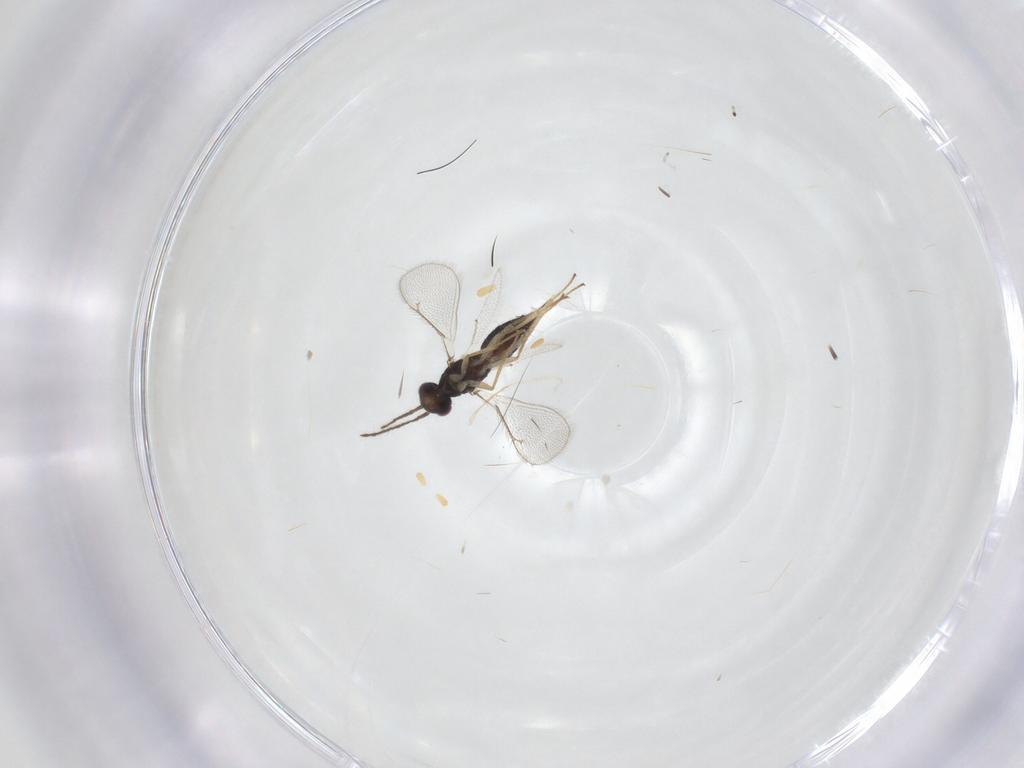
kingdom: Animalia
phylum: Arthropoda
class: Insecta
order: Hymenoptera
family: Eulophidae
